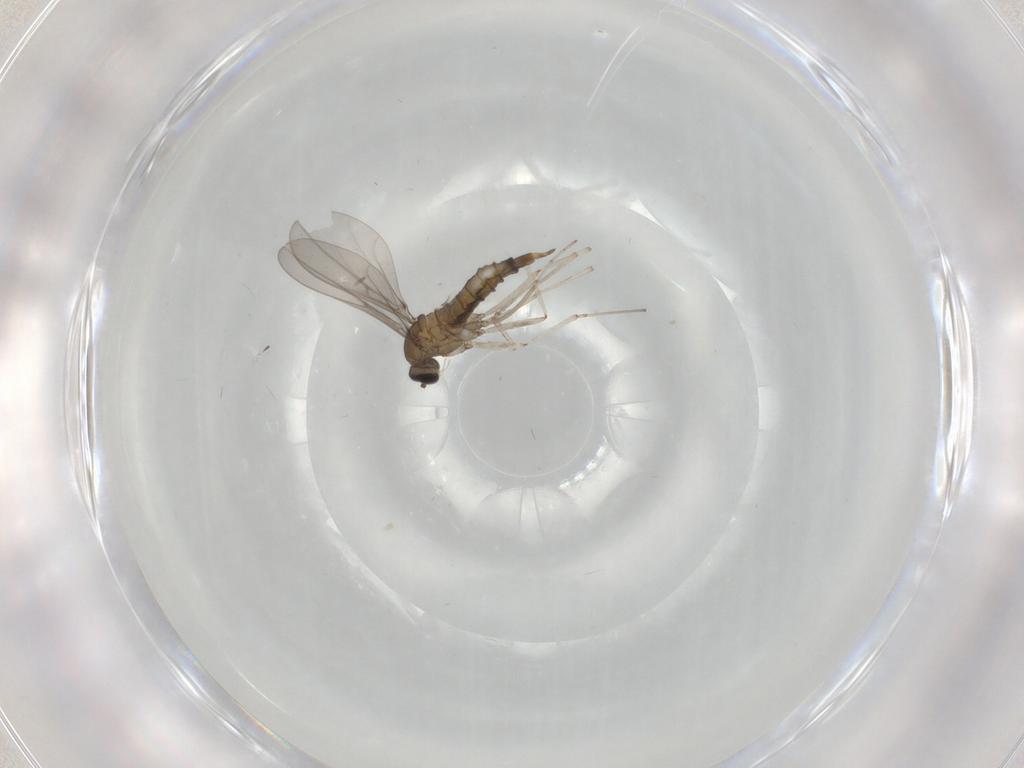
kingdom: Animalia
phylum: Arthropoda
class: Insecta
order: Diptera
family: Cecidomyiidae
